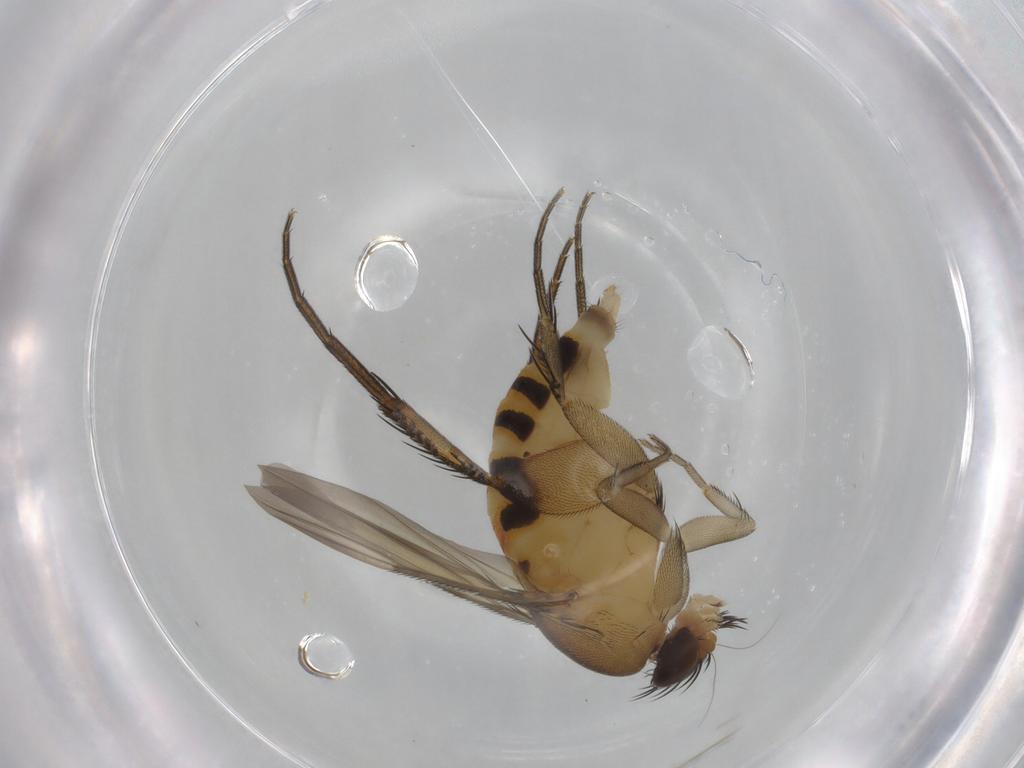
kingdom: Animalia
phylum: Arthropoda
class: Insecta
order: Diptera
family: Phoridae
